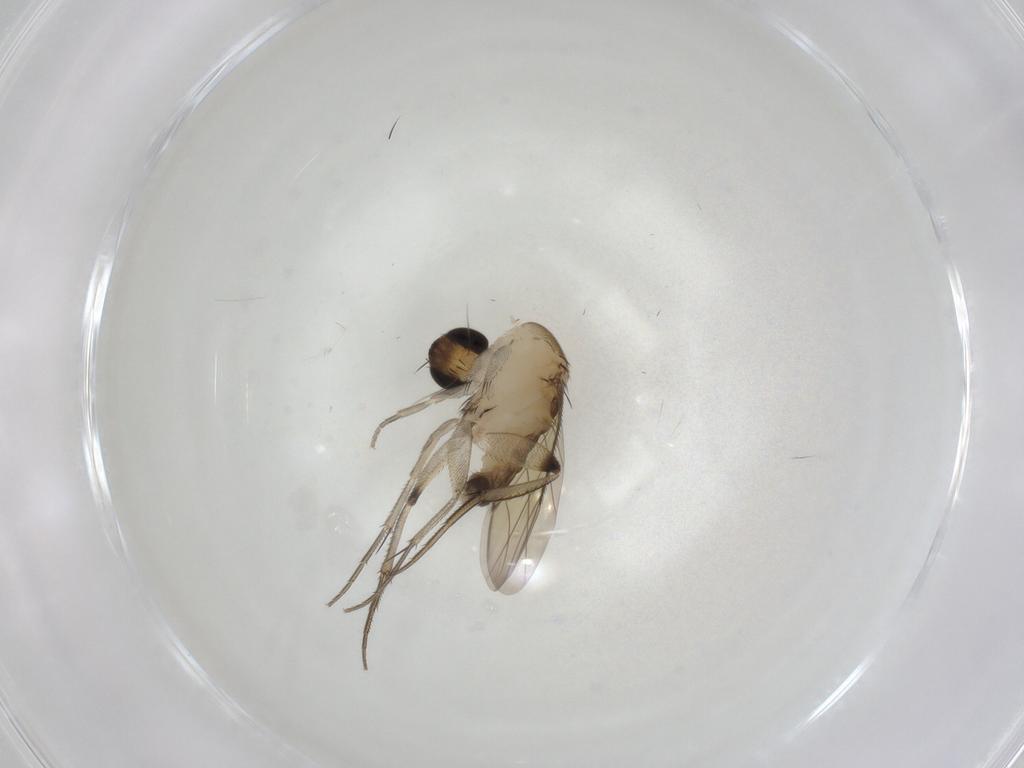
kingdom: Animalia
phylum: Arthropoda
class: Insecta
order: Diptera
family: Phoridae
